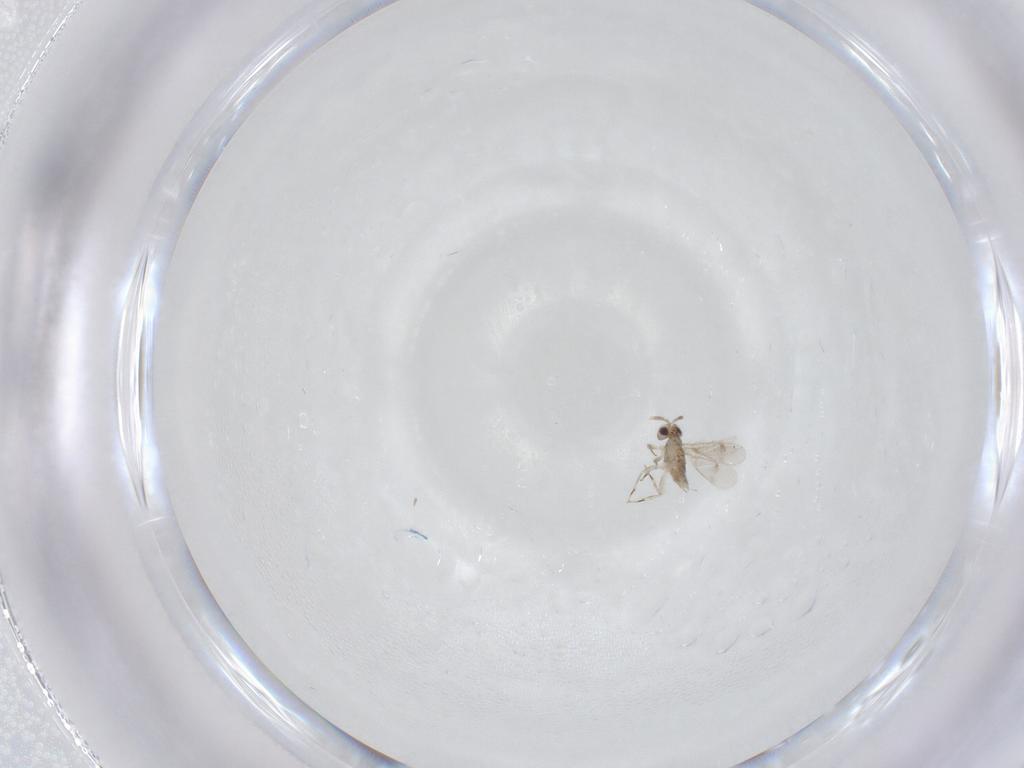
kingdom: Animalia
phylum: Arthropoda
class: Insecta
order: Hymenoptera
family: Aphelinidae
